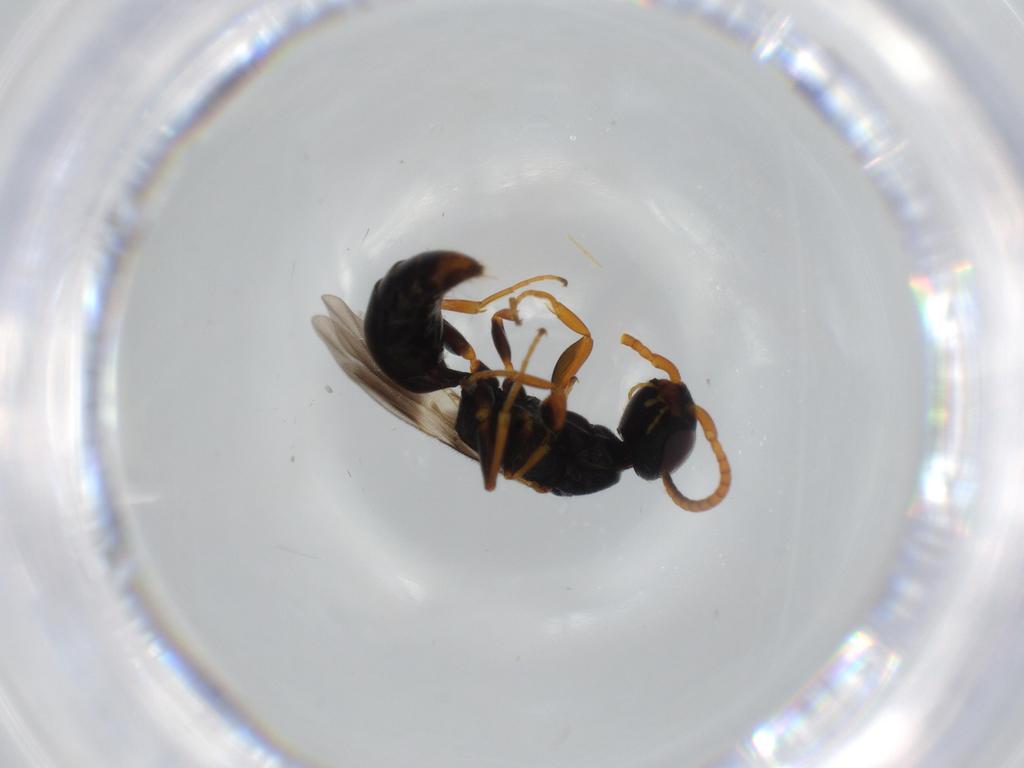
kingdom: Animalia
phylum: Arthropoda
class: Insecta
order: Hymenoptera
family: Bethylidae
